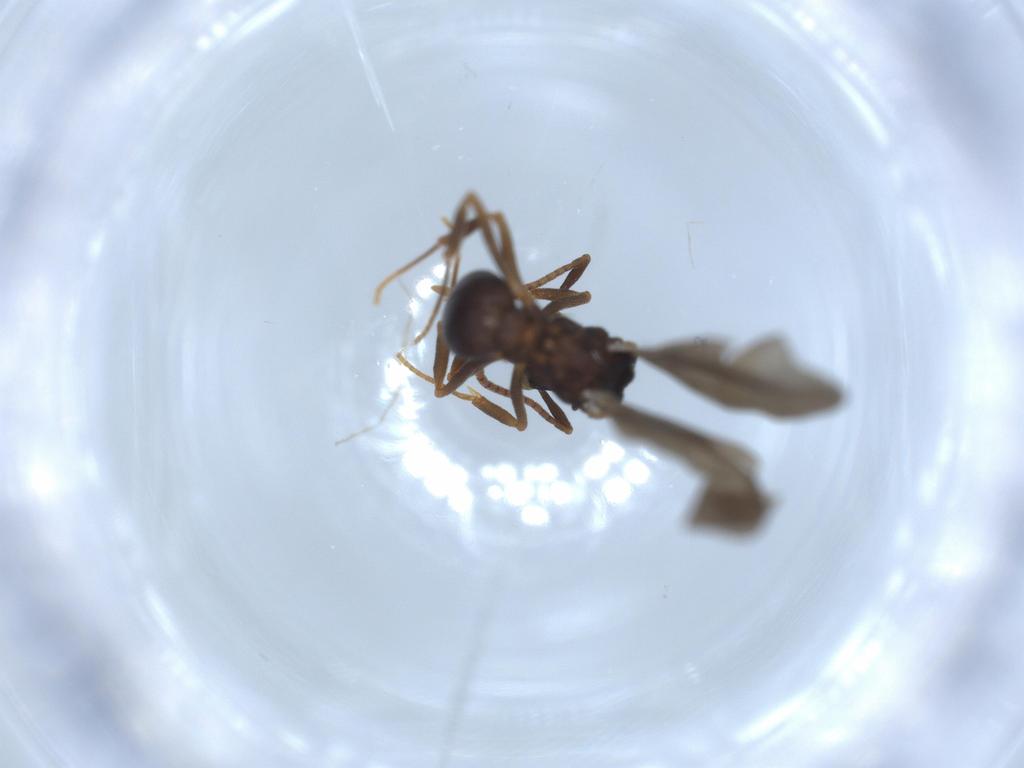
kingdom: Animalia
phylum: Arthropoda
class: Insecta
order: Hymenoptera
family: Formicidae
